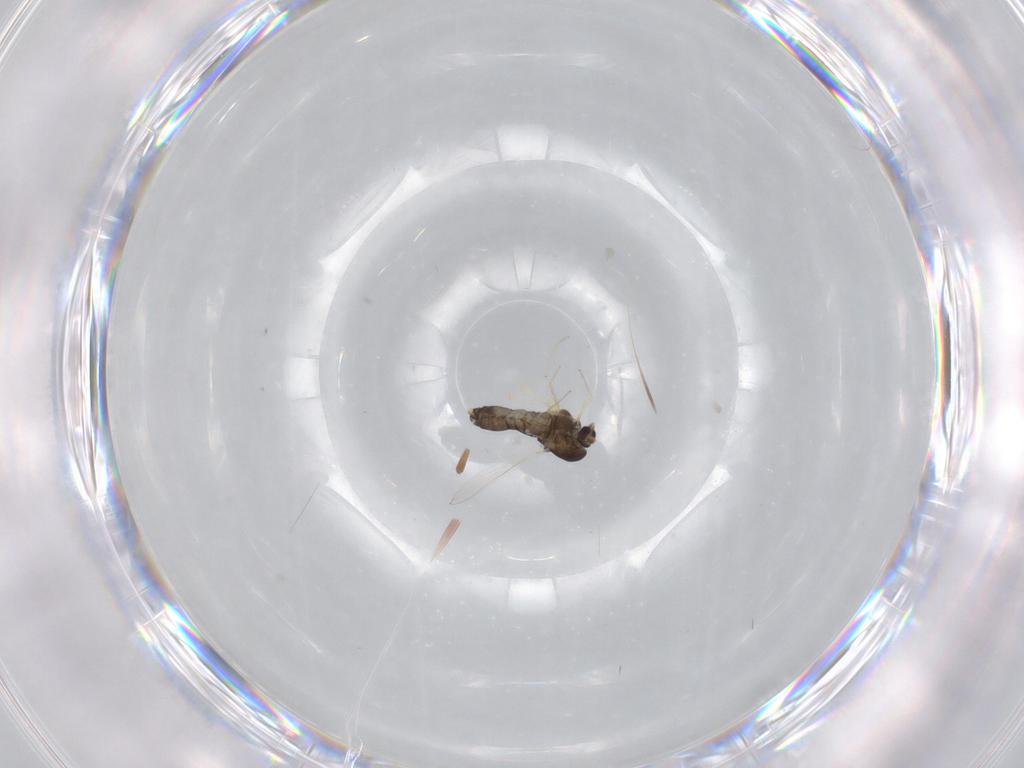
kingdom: Animalia
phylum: Arthropoda
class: Insecta
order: Diptera
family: Chironomidae
